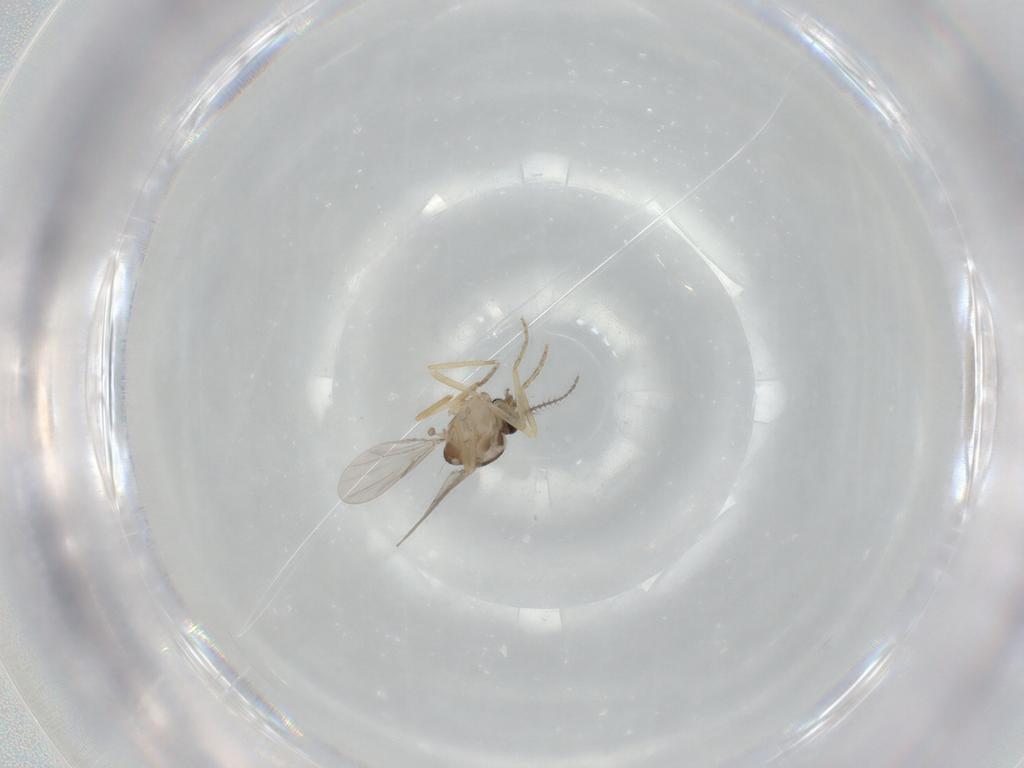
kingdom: Animalia
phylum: Arthropoda
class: Insecta
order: Diptera
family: Ceratopogonidae
